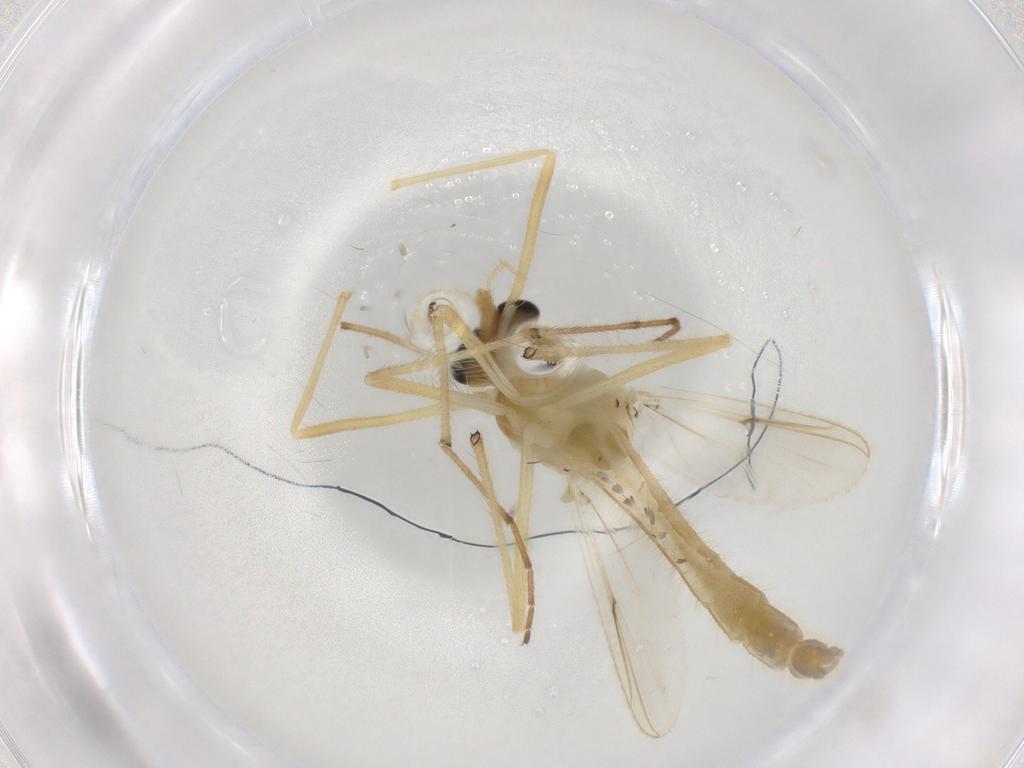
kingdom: Animalia
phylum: Arthropoda
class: Insecta
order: Diptera
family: Chironomidae
